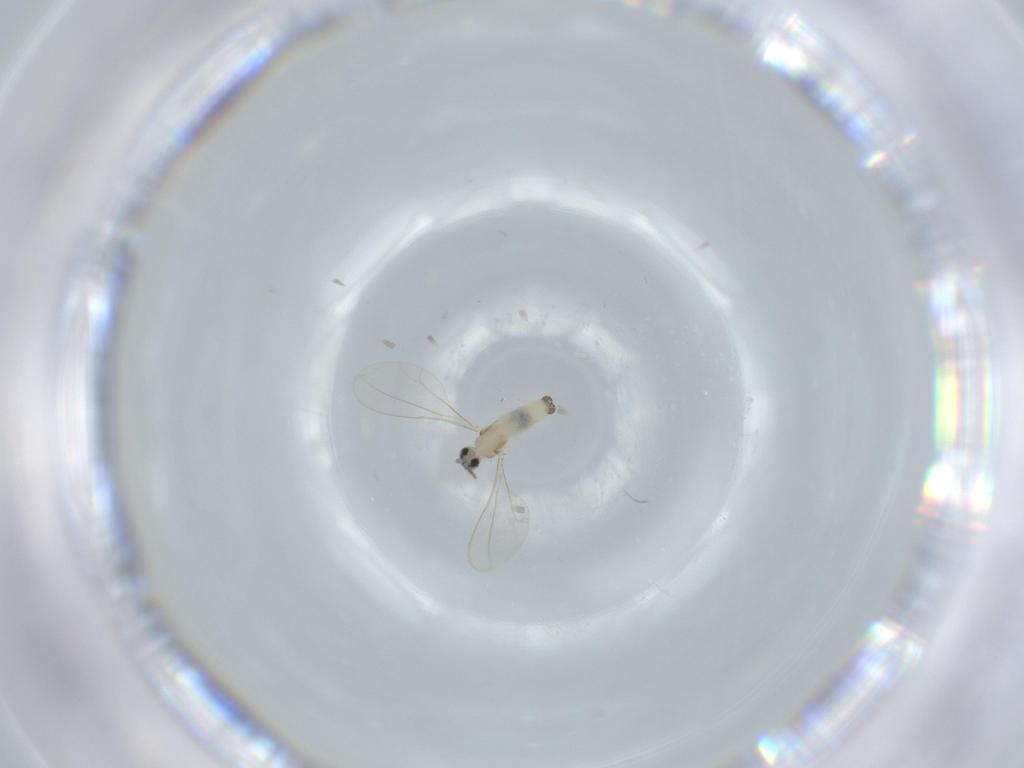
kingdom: Animalia
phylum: Arthropoda
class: Insecta
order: Diptera
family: Cecidomyiidae
